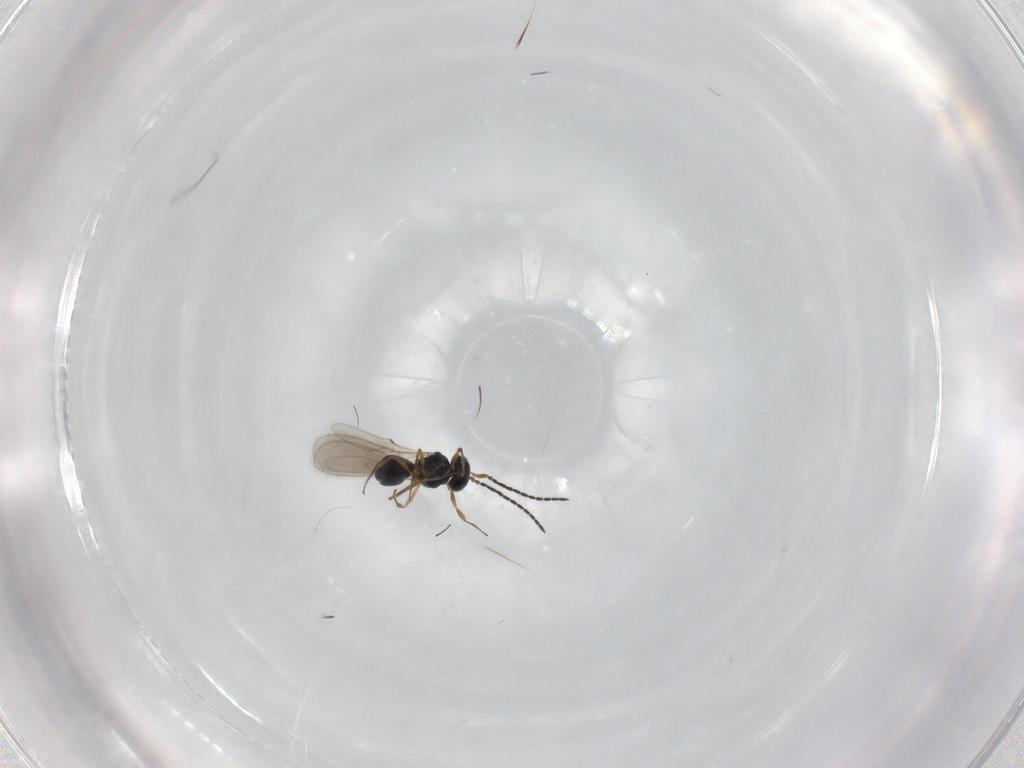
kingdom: Animalia
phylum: Arthropoda
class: Insecta
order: Hymenoptera
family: Scelionidae
